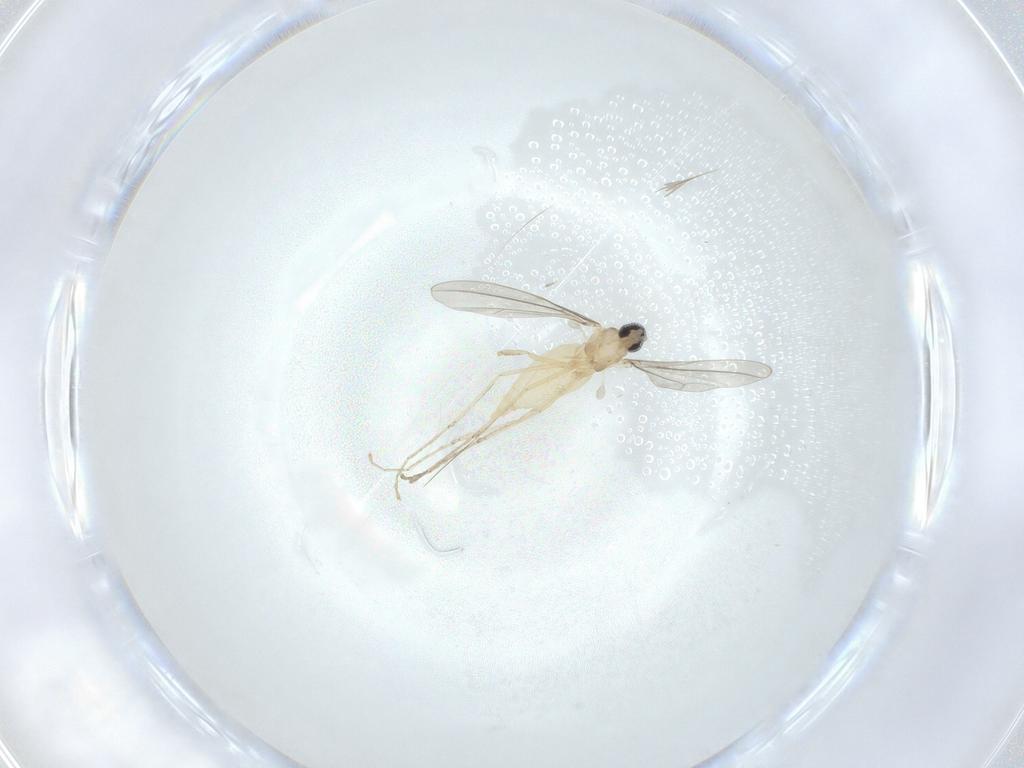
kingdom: Animalia
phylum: Arthropoda
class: Insecta
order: Diptera
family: Cecidomyiidae
